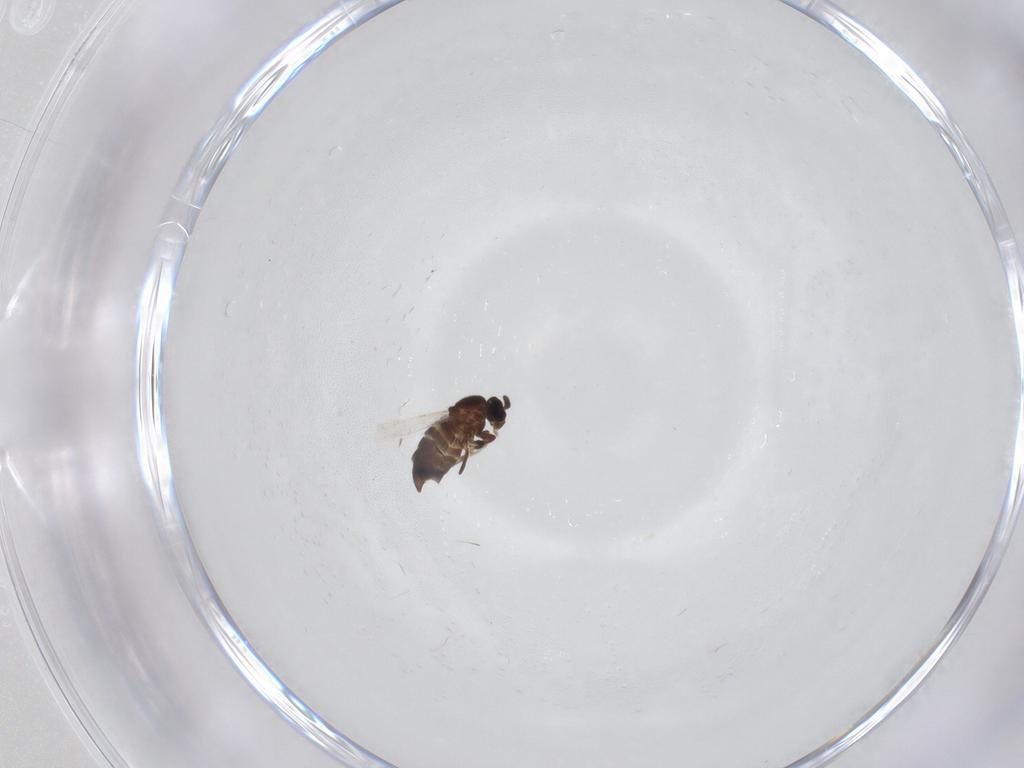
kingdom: Animalia
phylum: Arthropoda
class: Insecta
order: Diptera
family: Scatopsidae
